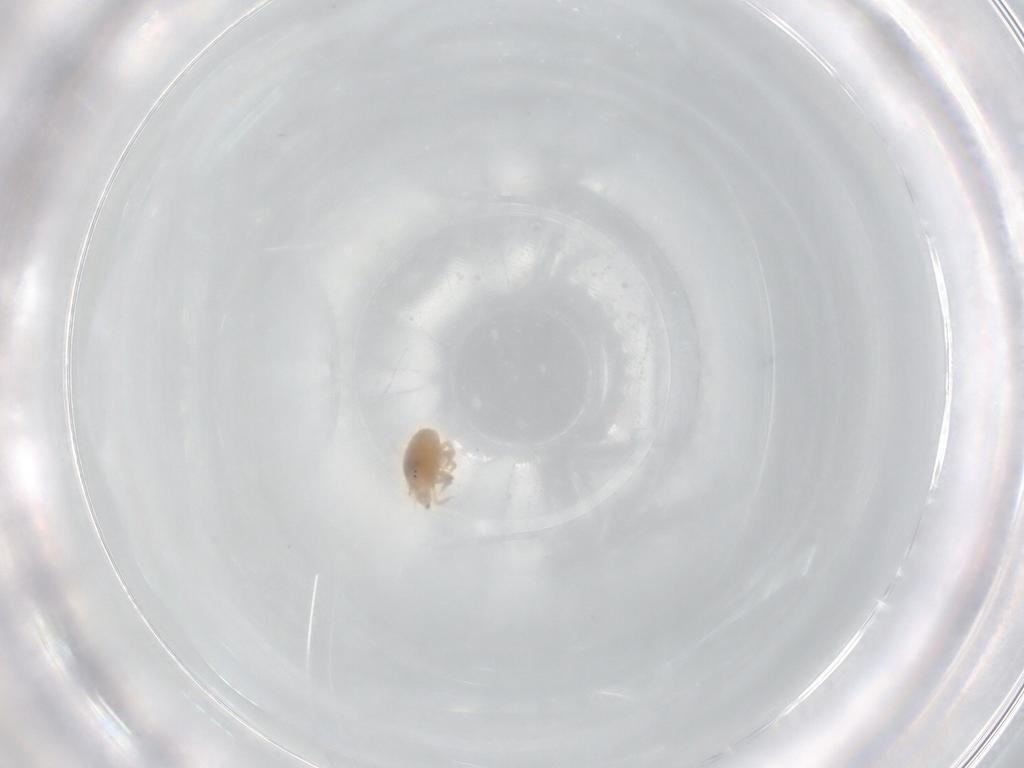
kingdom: Animalia
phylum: Arthropoda
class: Arachnida
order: Trombidiformes
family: Bdellidae
